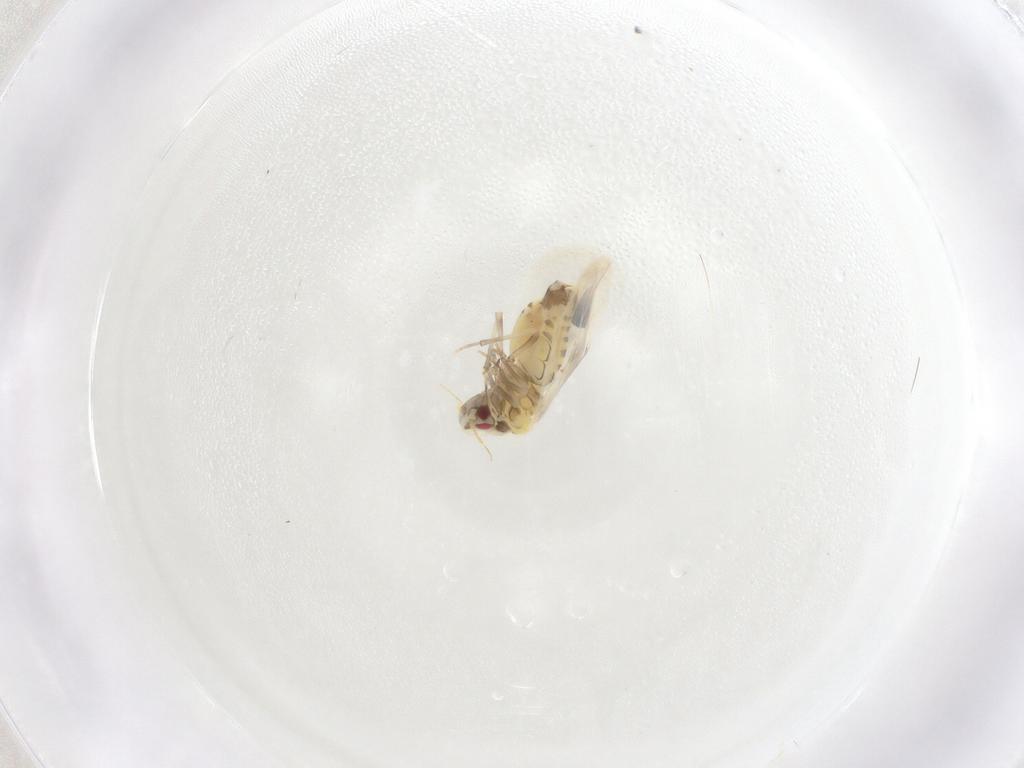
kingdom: Animalia
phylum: Arthropoda
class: Insecta
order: Hemiptera
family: Aleyrodidae
